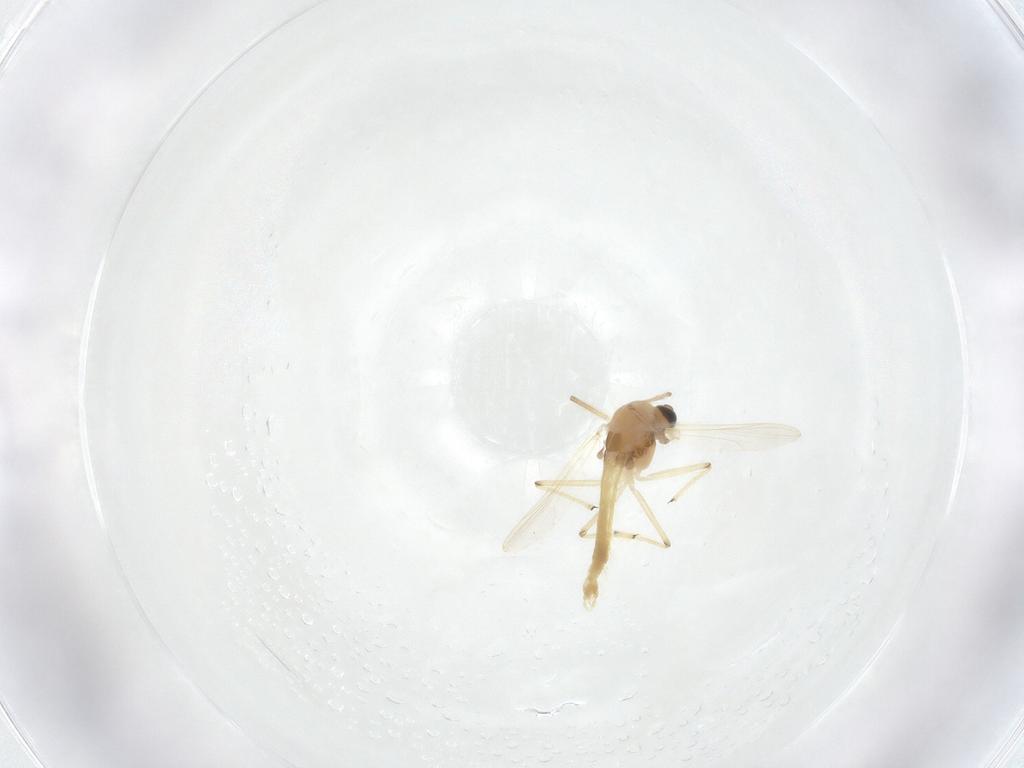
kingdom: Animalia
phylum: Arthropoda
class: Insecta
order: Diptera
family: Chironomidae
